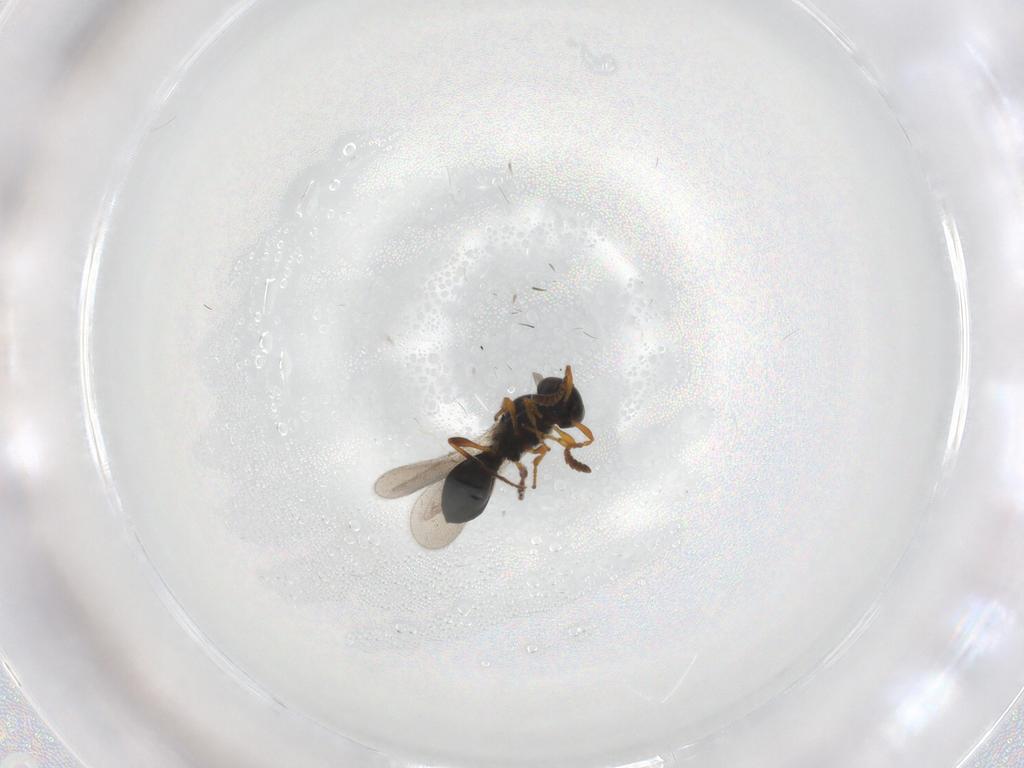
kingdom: Animalia
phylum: Arthropoda
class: Insecta
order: Hymenoptera
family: Platygastridae
